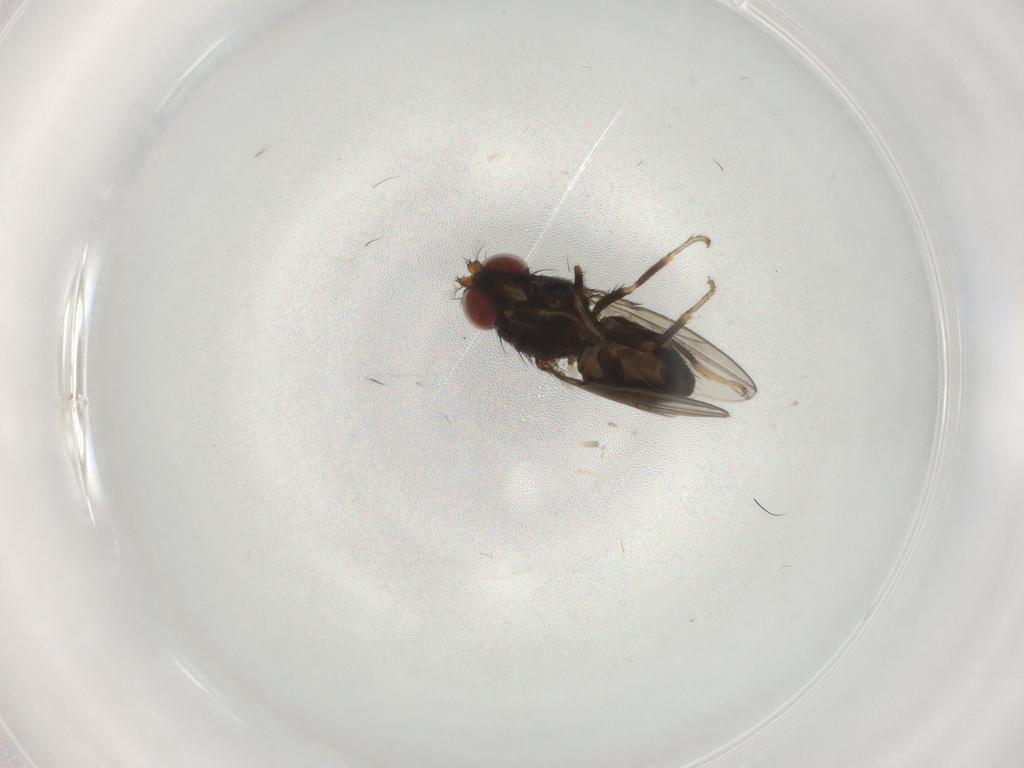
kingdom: Animalia
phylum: Arthropoda
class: Insecta
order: Diptera
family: Ephydridae
